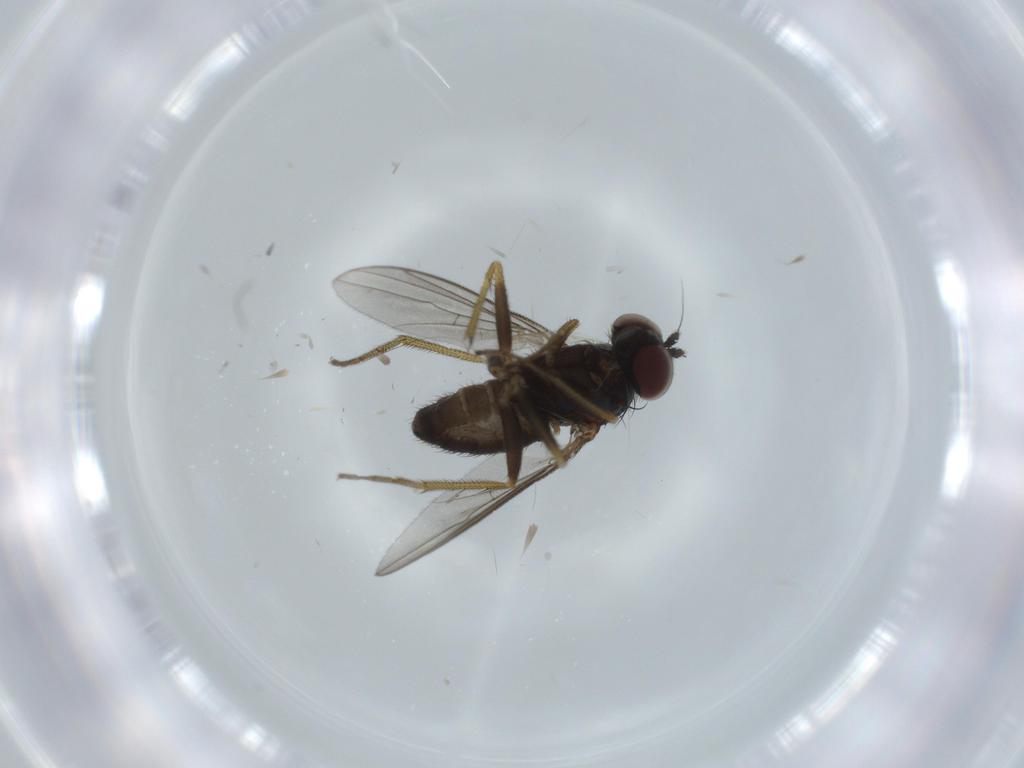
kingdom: Animalia
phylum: Arthropoda
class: Insecta
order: Diptera
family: Dolichopodidae
